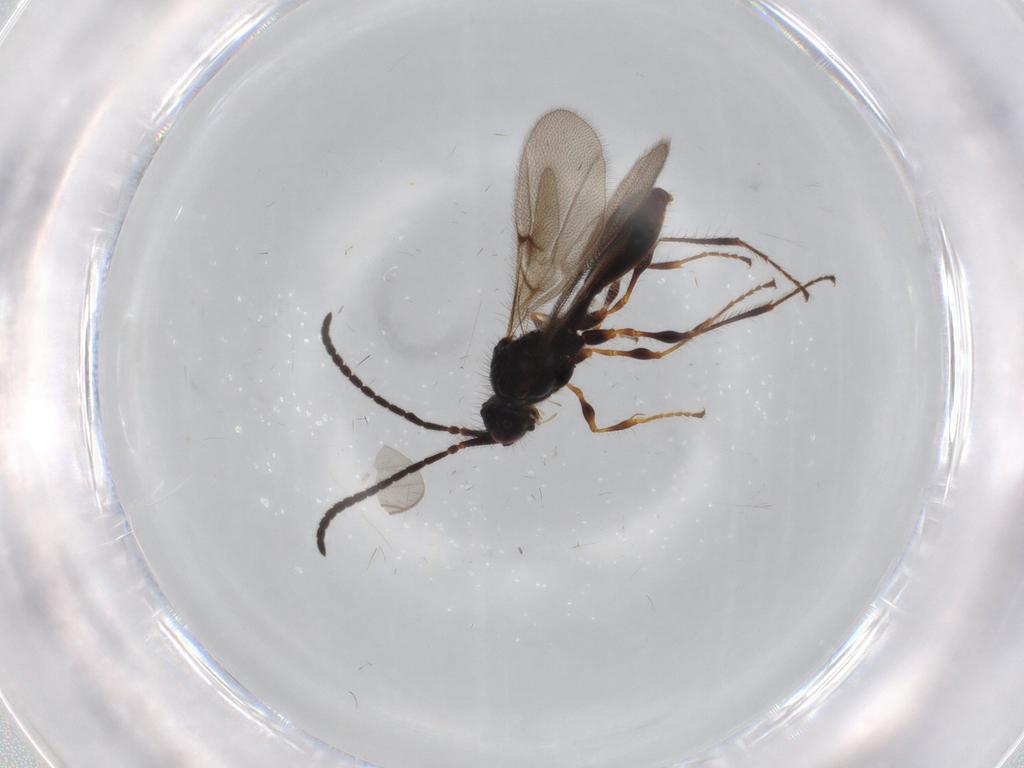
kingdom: Animalia
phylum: Arthropoda
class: Insecta
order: Hymenoptera
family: Diapriidae
